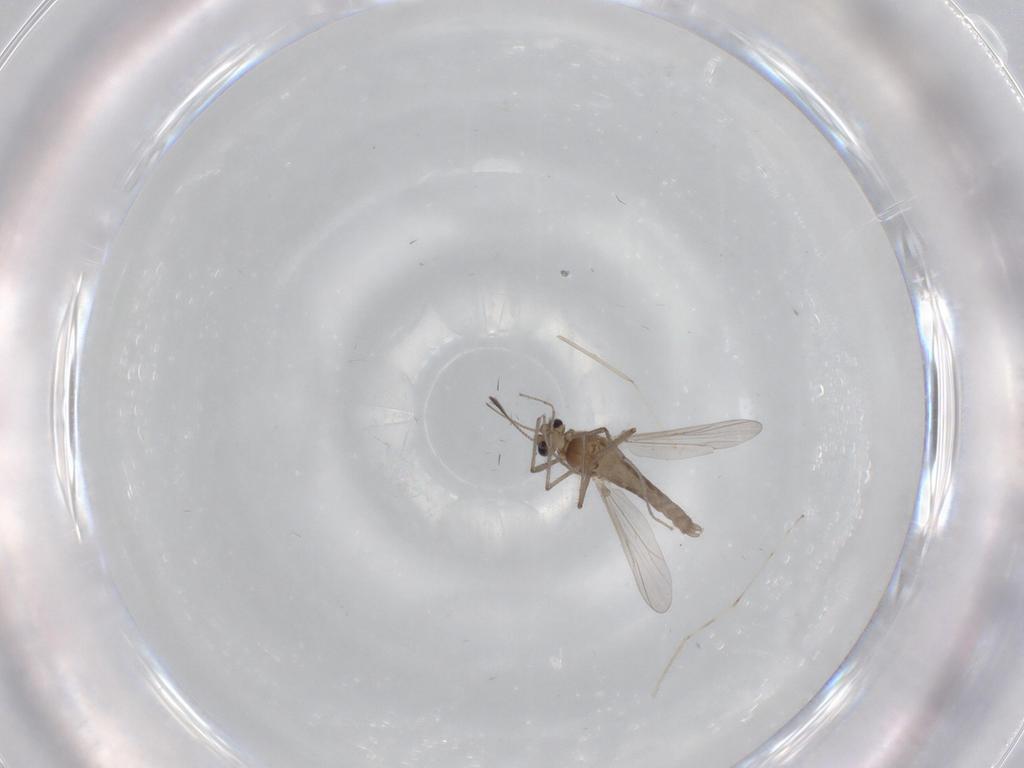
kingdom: Animalia
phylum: Arthropoda
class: Insecta
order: Diptera
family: Chironomidae
